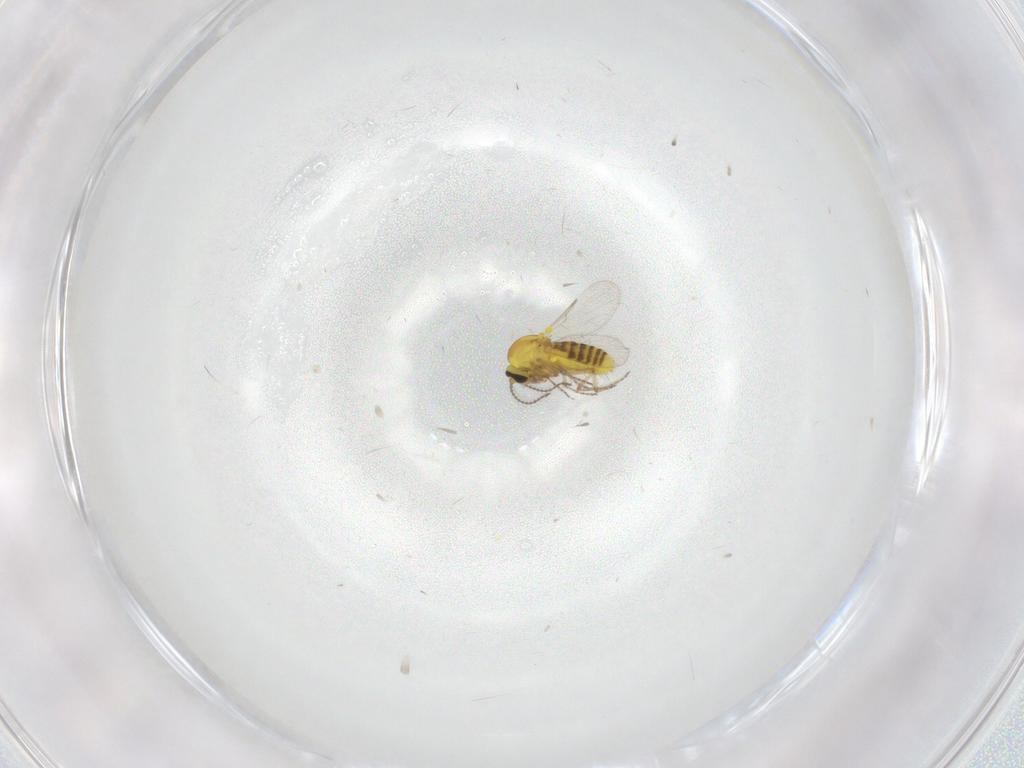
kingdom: Animalia
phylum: Arthropoda
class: Insecta
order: Diptera
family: Ceratopogonidae
